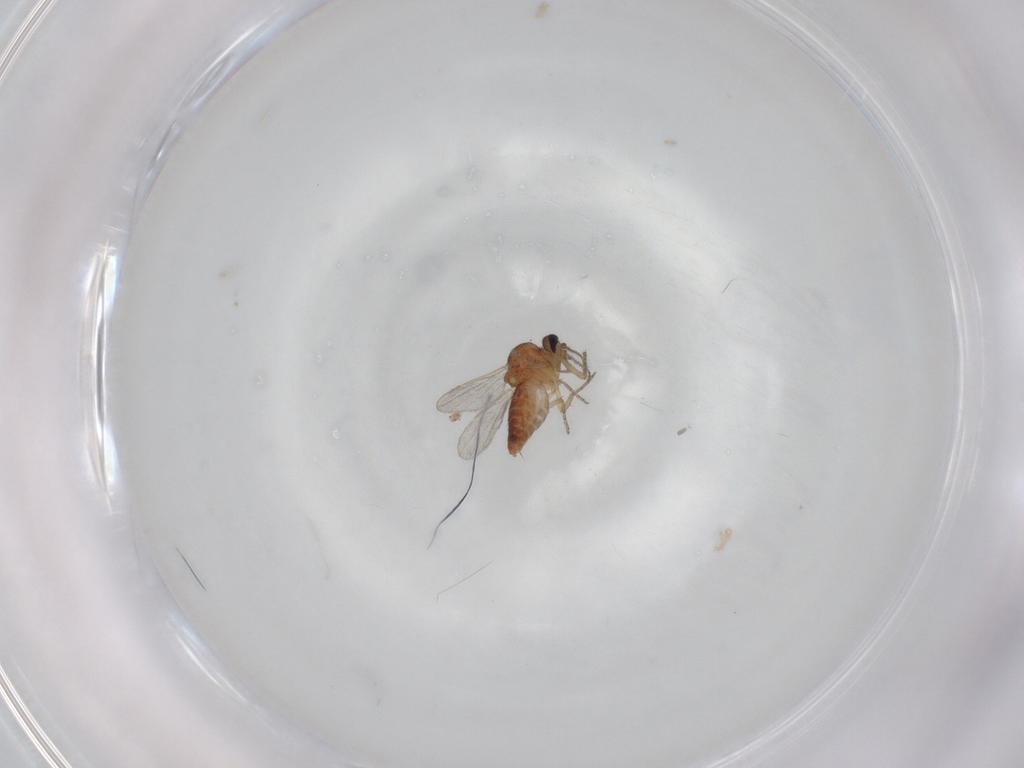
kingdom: Animalia
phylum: Arthropoda
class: Insecta
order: Diptera
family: Ceratopogonidae
